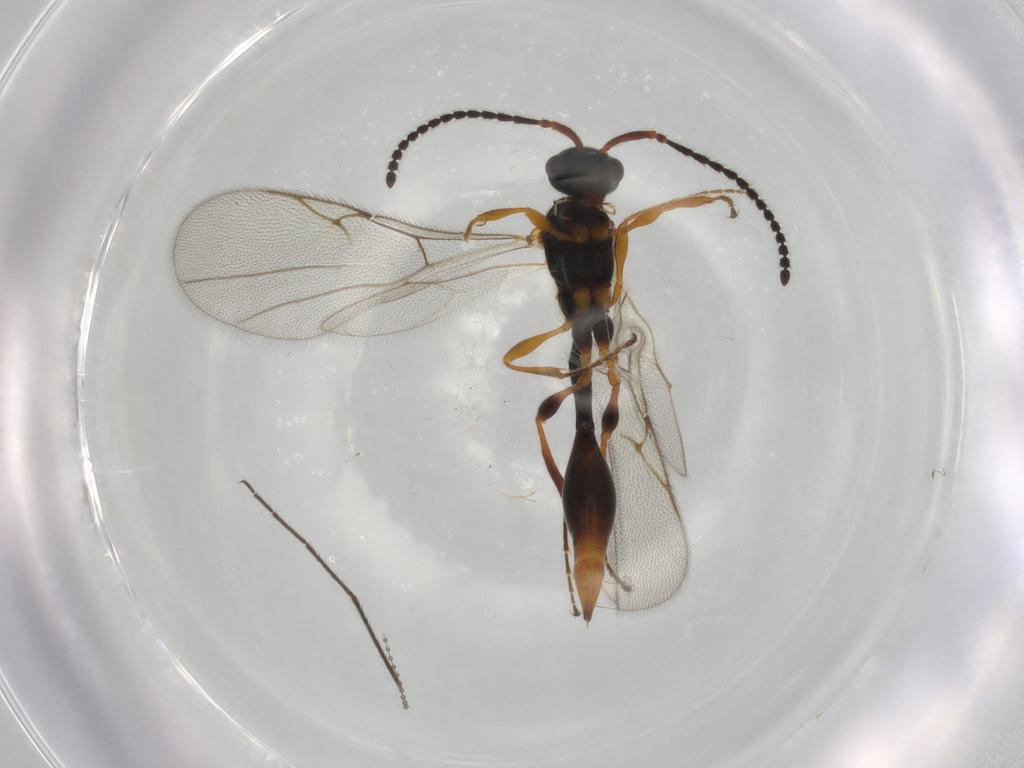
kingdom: Animalia
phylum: Arthropoda
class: Insecta
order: Hymenoptera
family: Diapriidae
